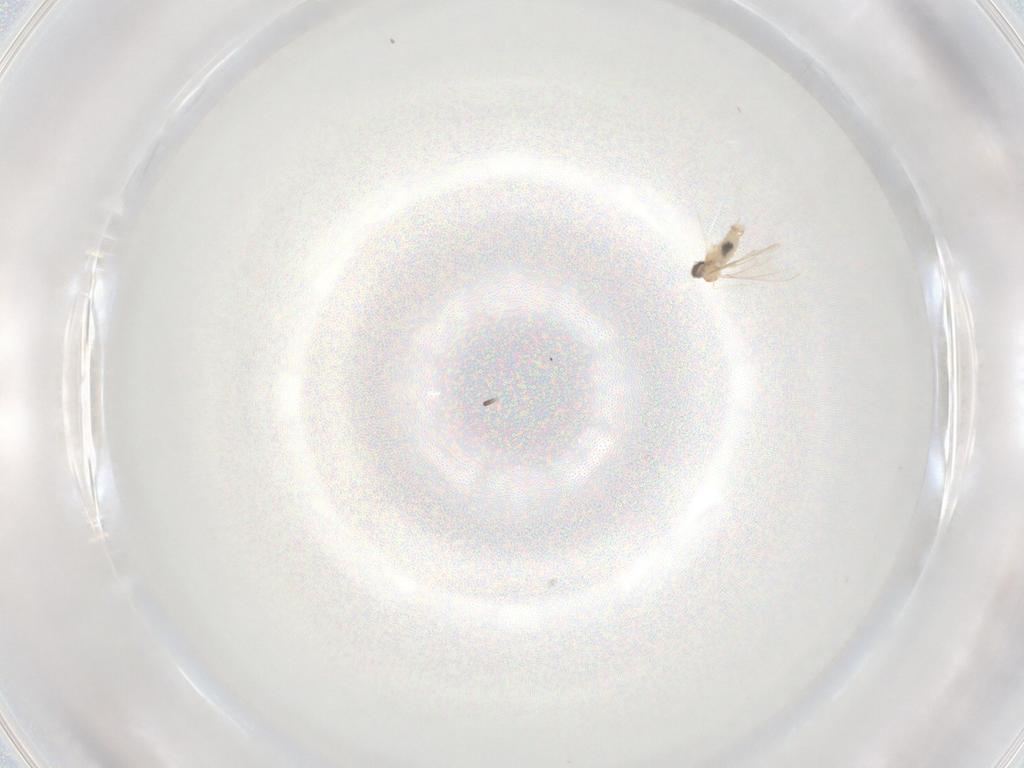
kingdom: Animalia
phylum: Arthropoda
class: Insecta
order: Diptera
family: Cecidomyiidae
